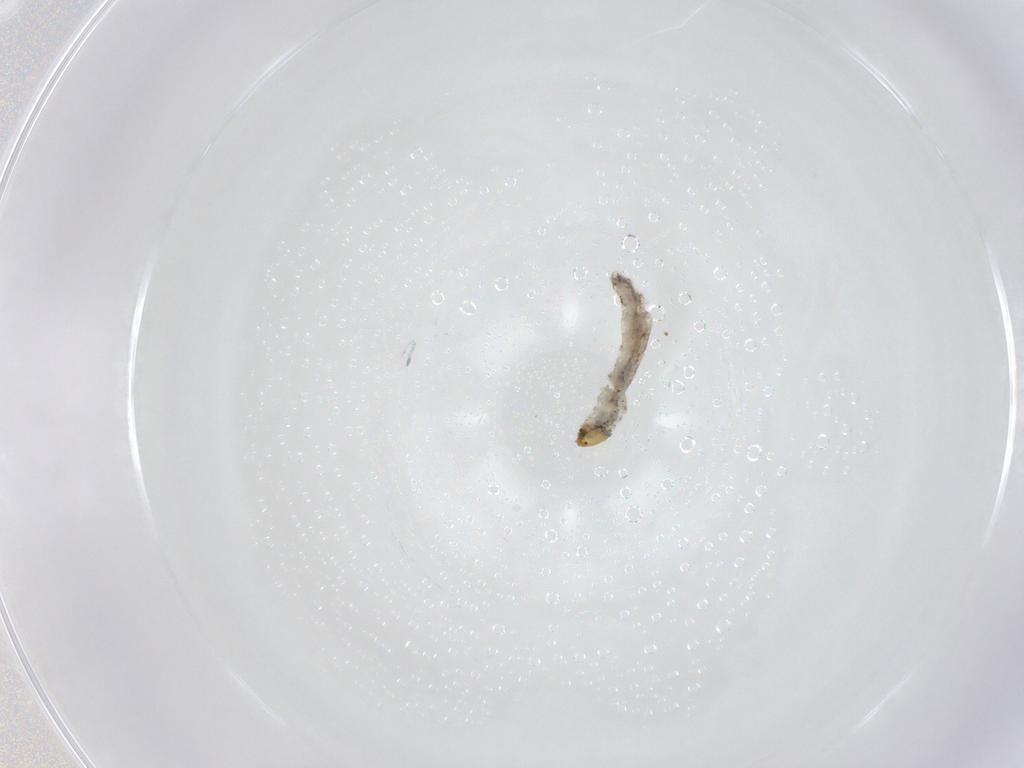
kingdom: Animalia
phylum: Arthropoda
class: Insecta
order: Diptera
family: Chironomidae
